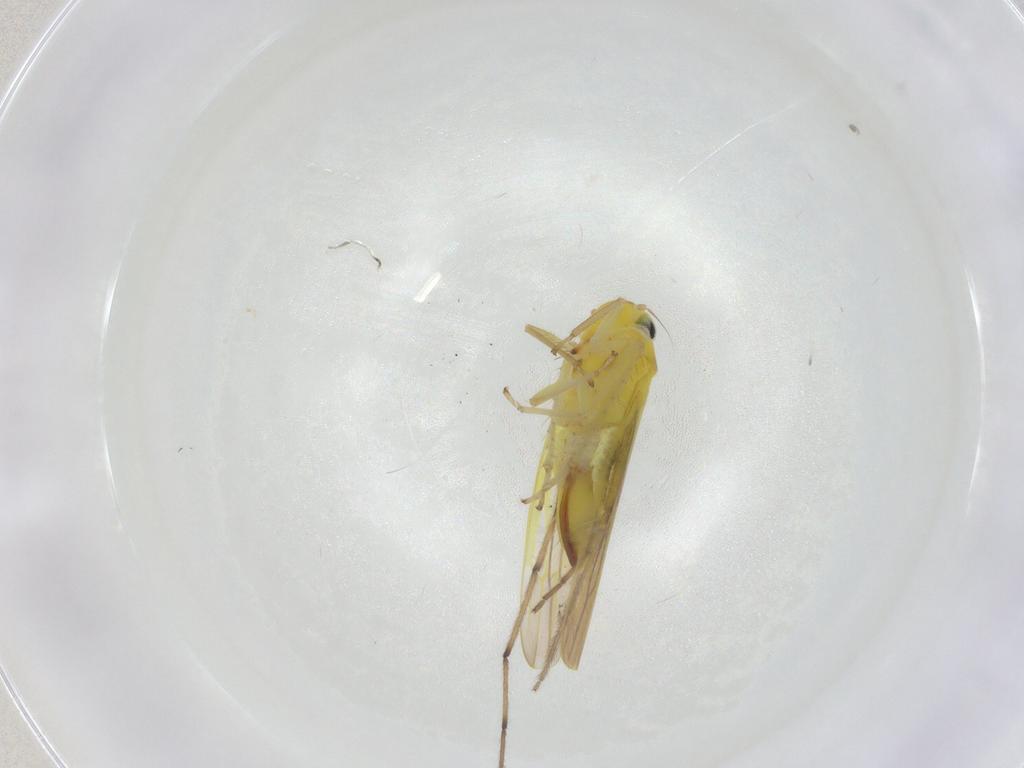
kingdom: Animalia
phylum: Arthropoda
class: Insecta
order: Hemiptera
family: Cicadellidae
